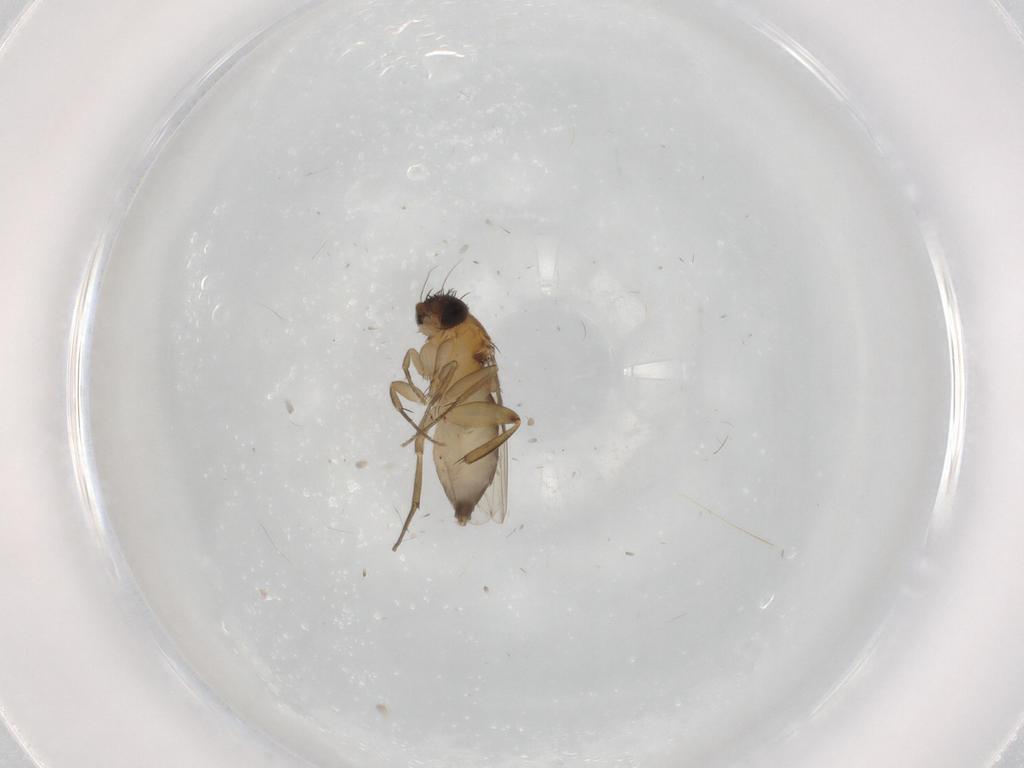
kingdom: Animalia
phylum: Arthropoda
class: Insecta
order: Diptera
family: Phoridae
